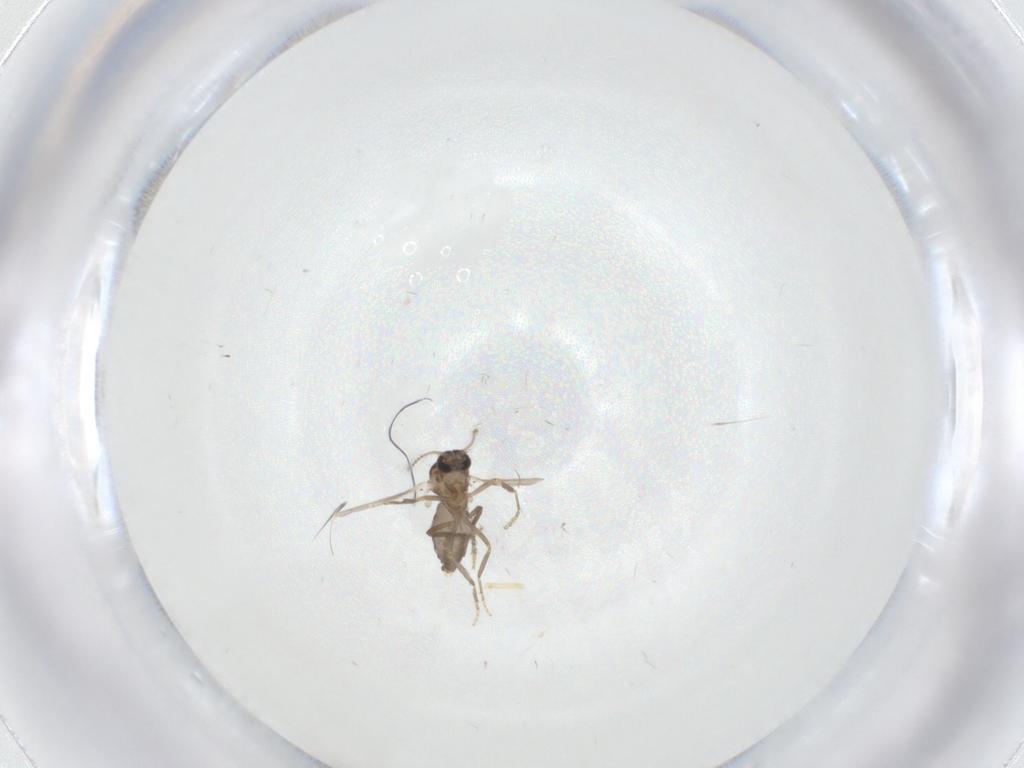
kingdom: Animalia
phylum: Arthropoda
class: Insecta
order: Diptera
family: Ceratopogonidae
